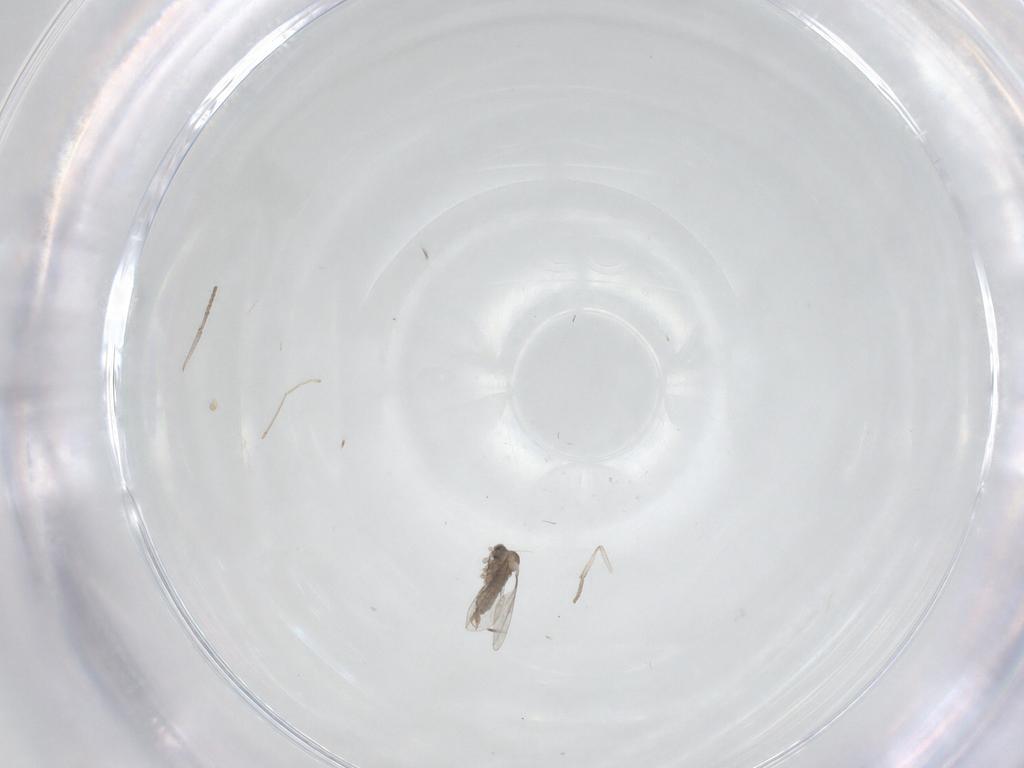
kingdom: Animalia
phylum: Arthropoda
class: Insecta
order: Diptera
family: Cecidomyiidae
